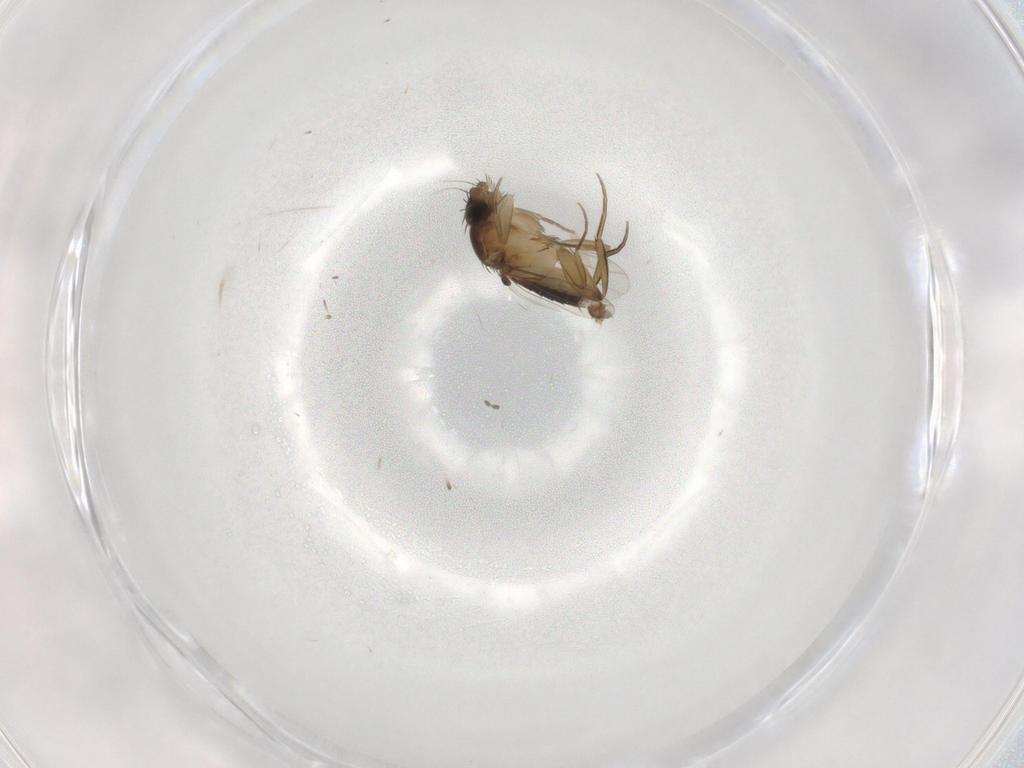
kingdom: Animalia
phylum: Arthropoda
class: Insecta
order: Diptera
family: Phoridae
